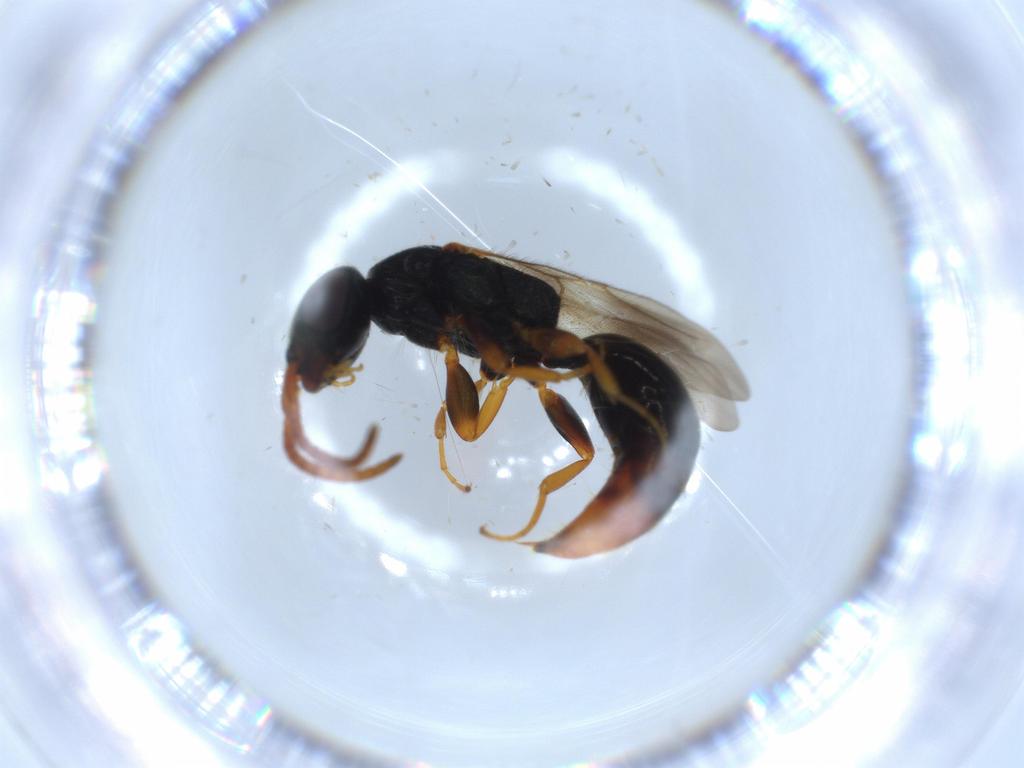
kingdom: Animalia
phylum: Arthropoda
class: Insecta
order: Hymenoptera
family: Bethylidae
